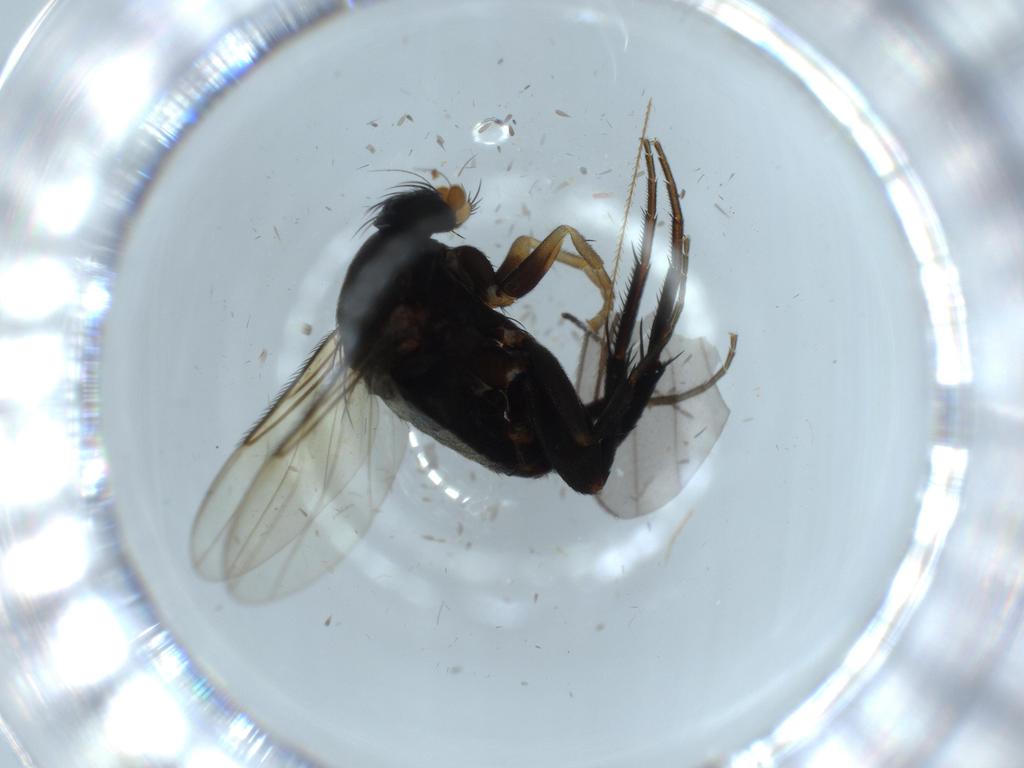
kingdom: Animalia
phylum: Arthropoda
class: Insecta
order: Diptera
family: Phoridae
